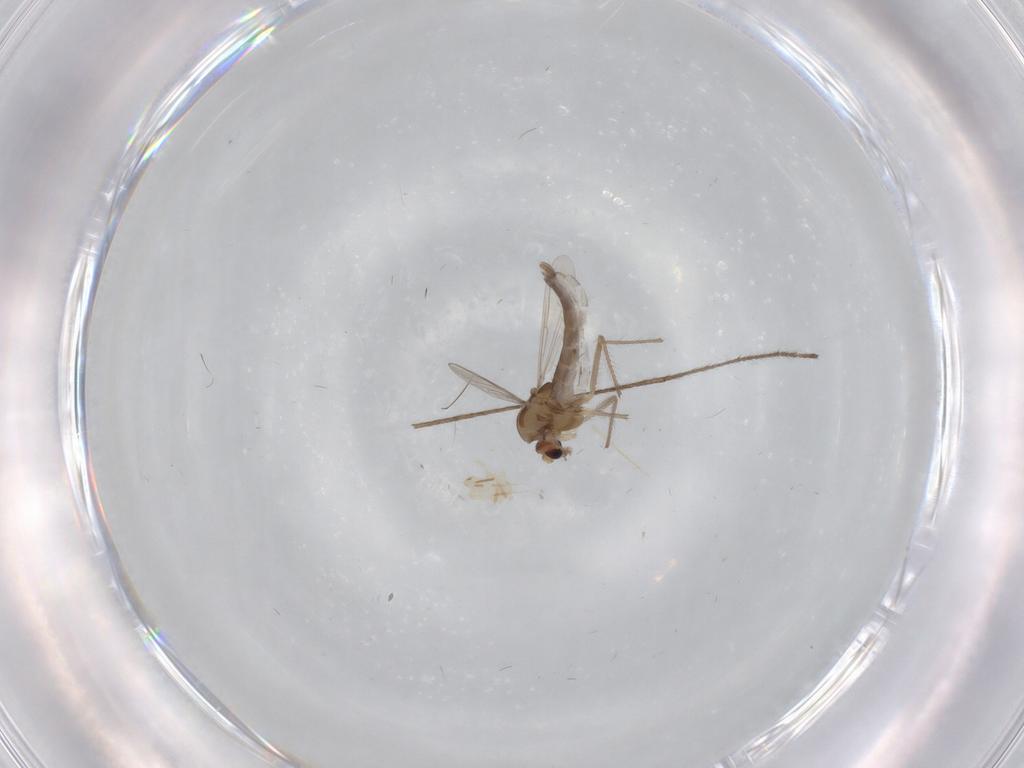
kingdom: Animalia
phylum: Arthropoda
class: Insecta
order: Diptera
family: Chironomidae
